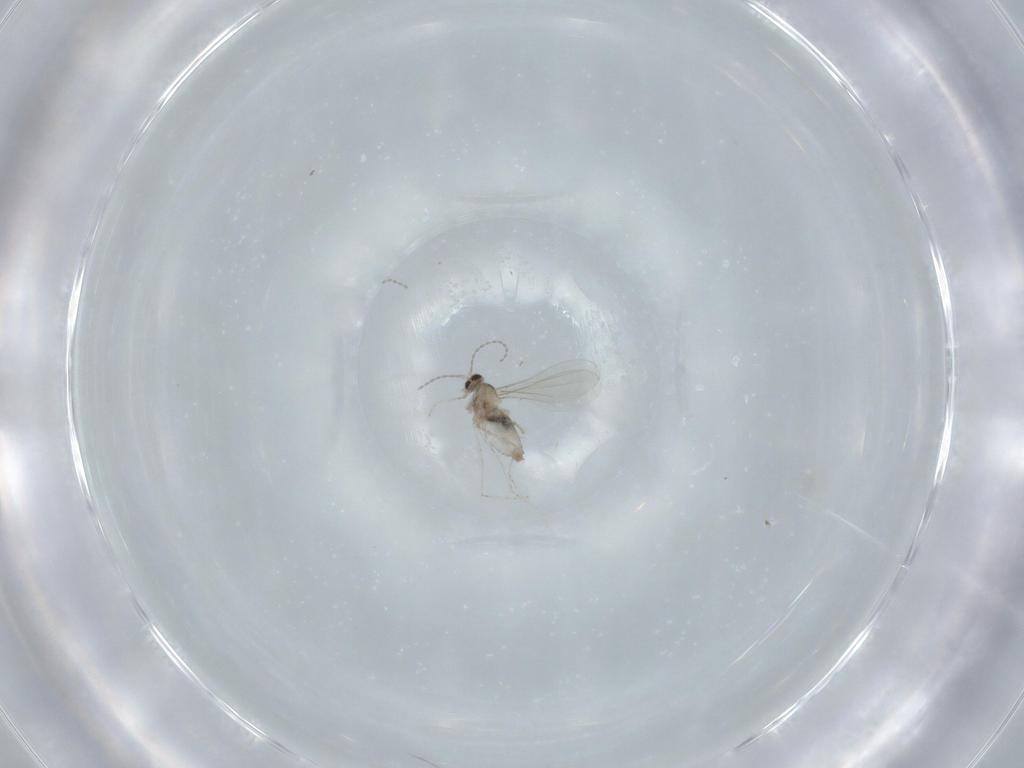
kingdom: Animalia
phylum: Arthropoda
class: Insecta
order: Diptera
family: Cecidomyiidae
